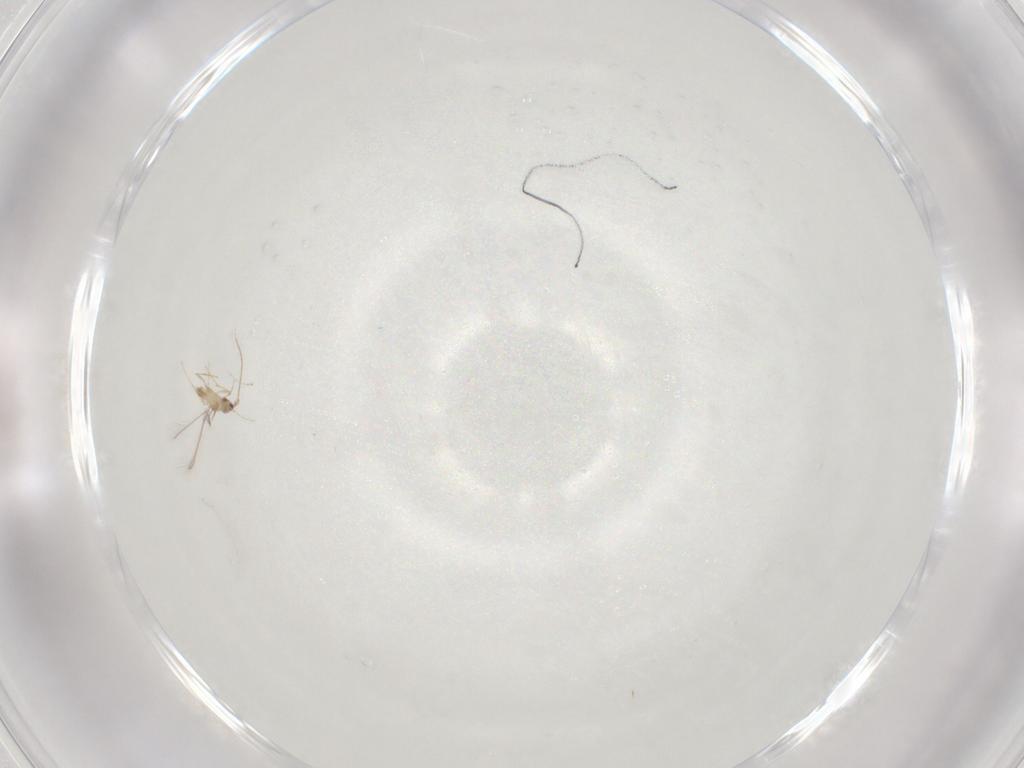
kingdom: Animalia
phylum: Arthropoda
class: Insecta
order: Hymenoptera
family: Mymaridae
